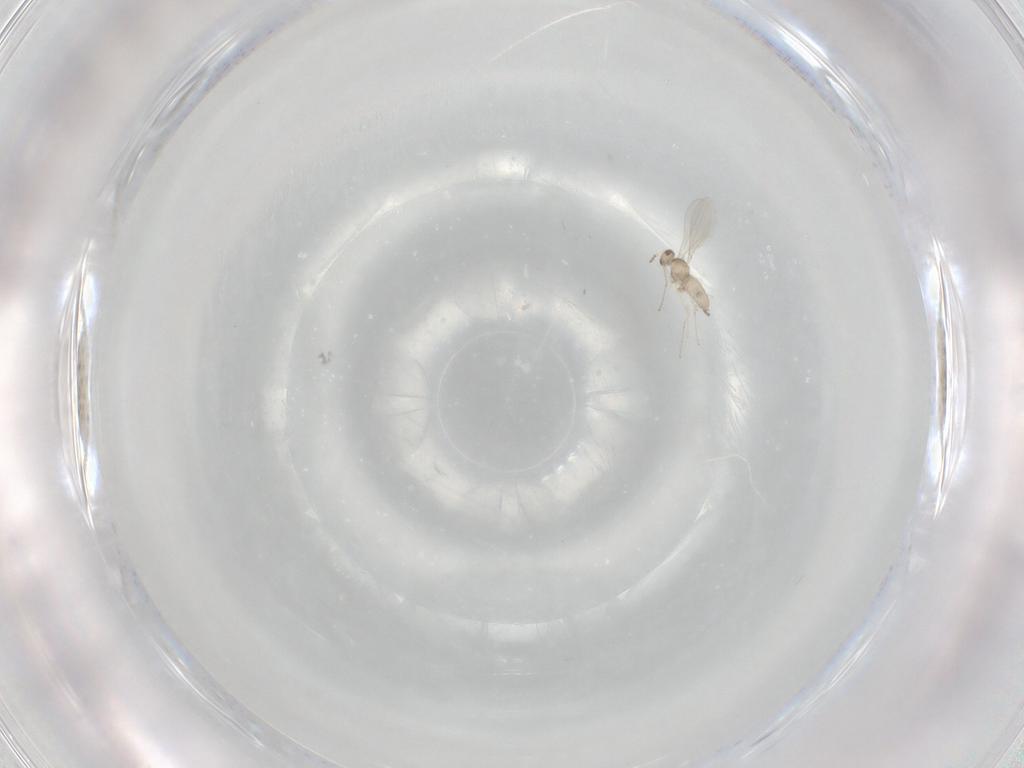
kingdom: Animalia
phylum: Arthropoda
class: Insecta
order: Diptera
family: Phoridae
